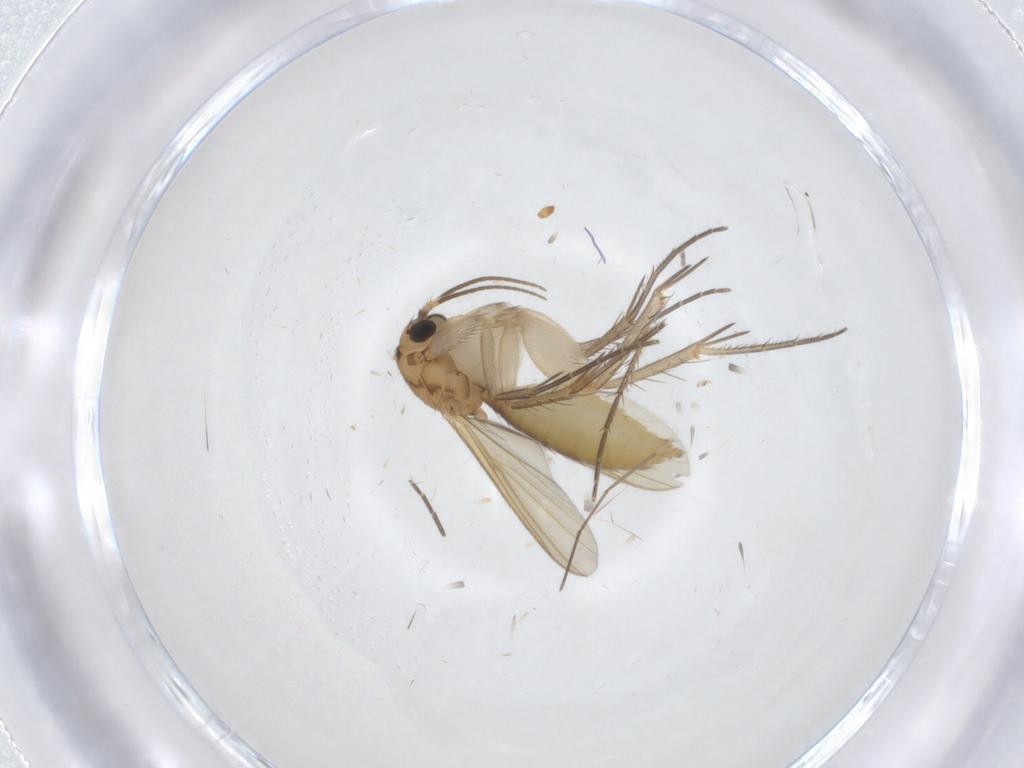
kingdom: Animalia
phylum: Arthropoda
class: Insecta
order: Diptera
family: Mycetophilidae
